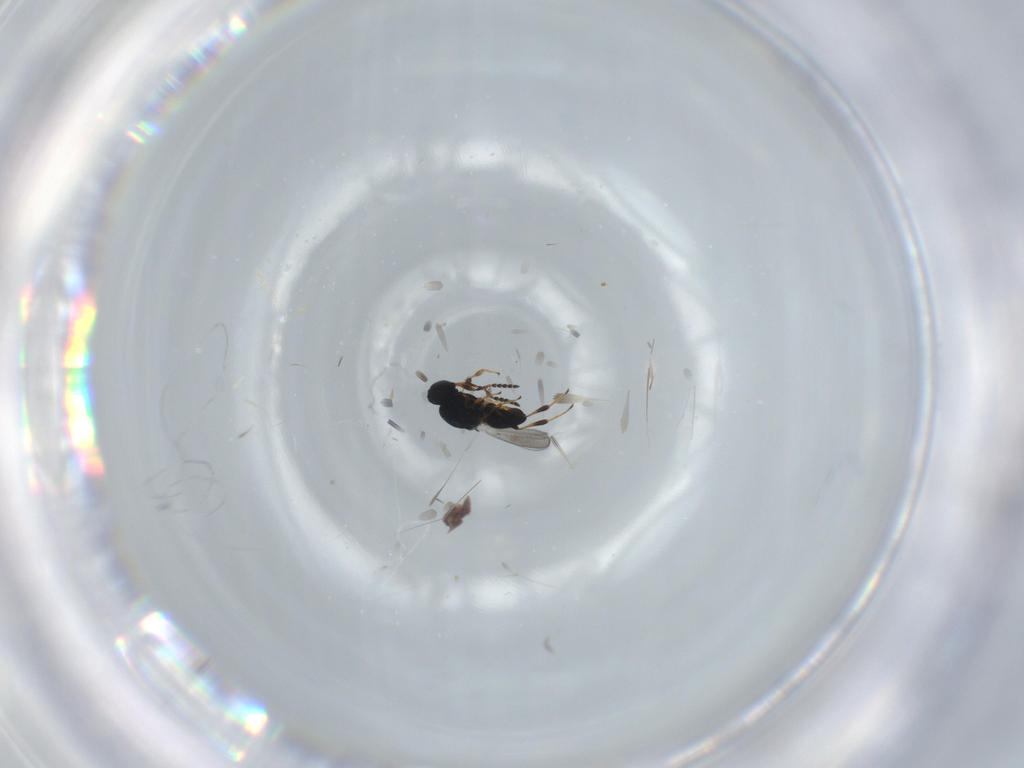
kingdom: Animalia
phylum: Arthropoda
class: Insecta
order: Hymenoptera
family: Platygastridae
